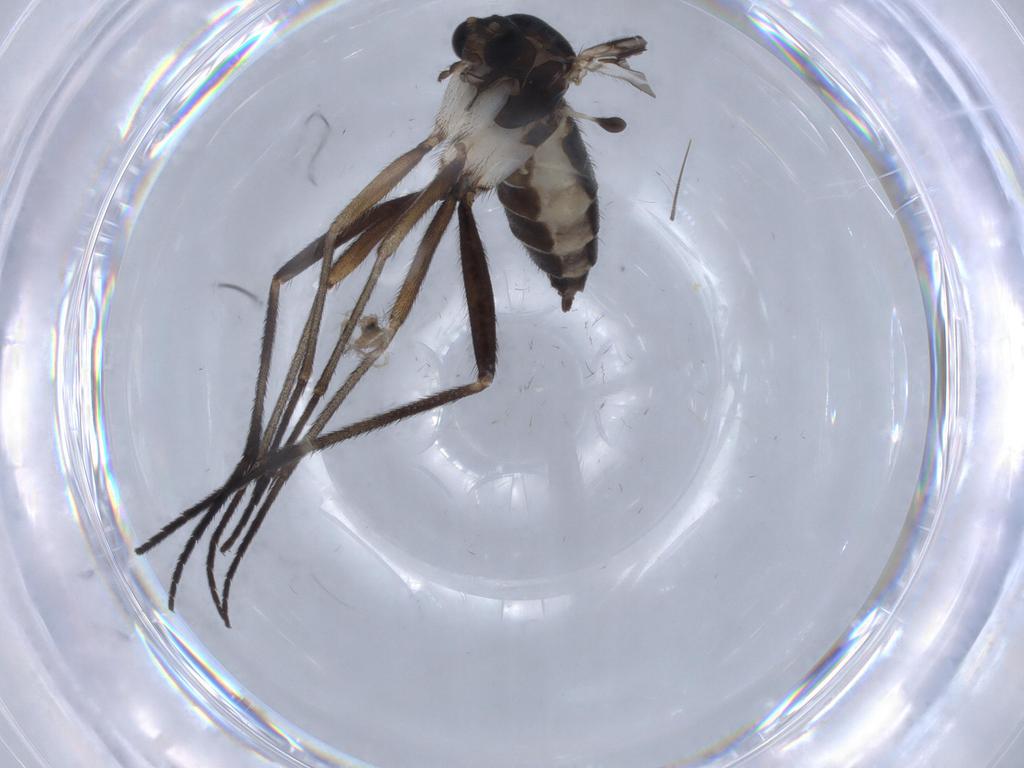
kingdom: Animalia
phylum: Arthropoda
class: Insecta
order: Diptera
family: Sciaridae
